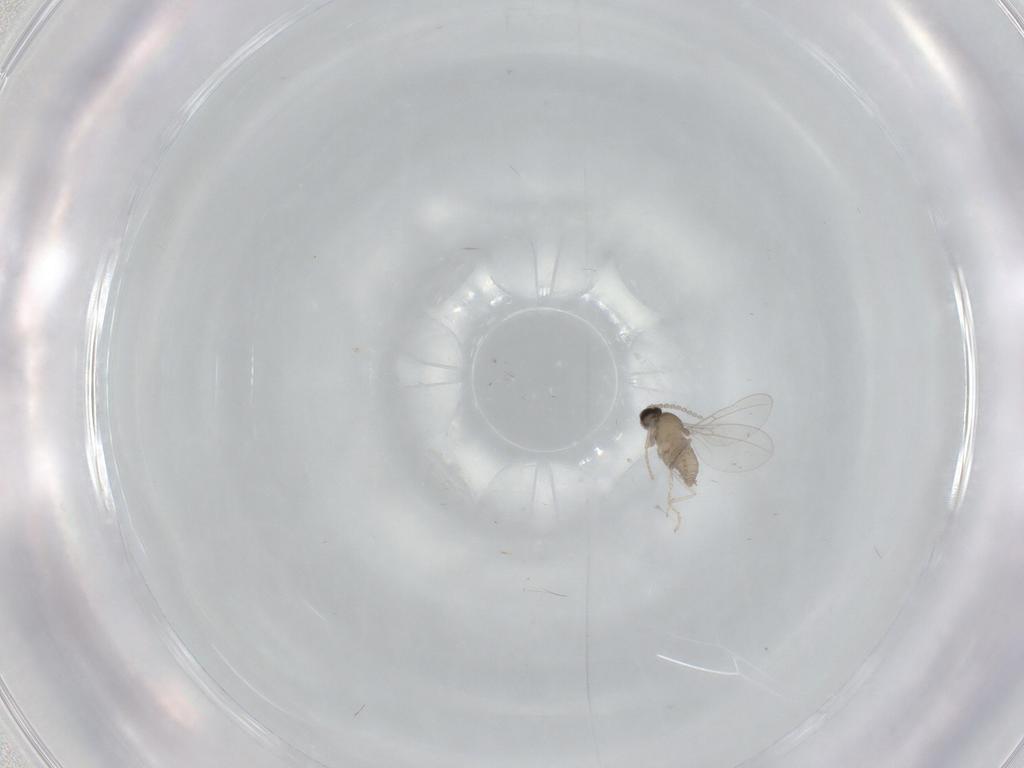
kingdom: Animalia
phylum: Arthropoda
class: Insecta
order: Diptera
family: Cecidomyiidae
